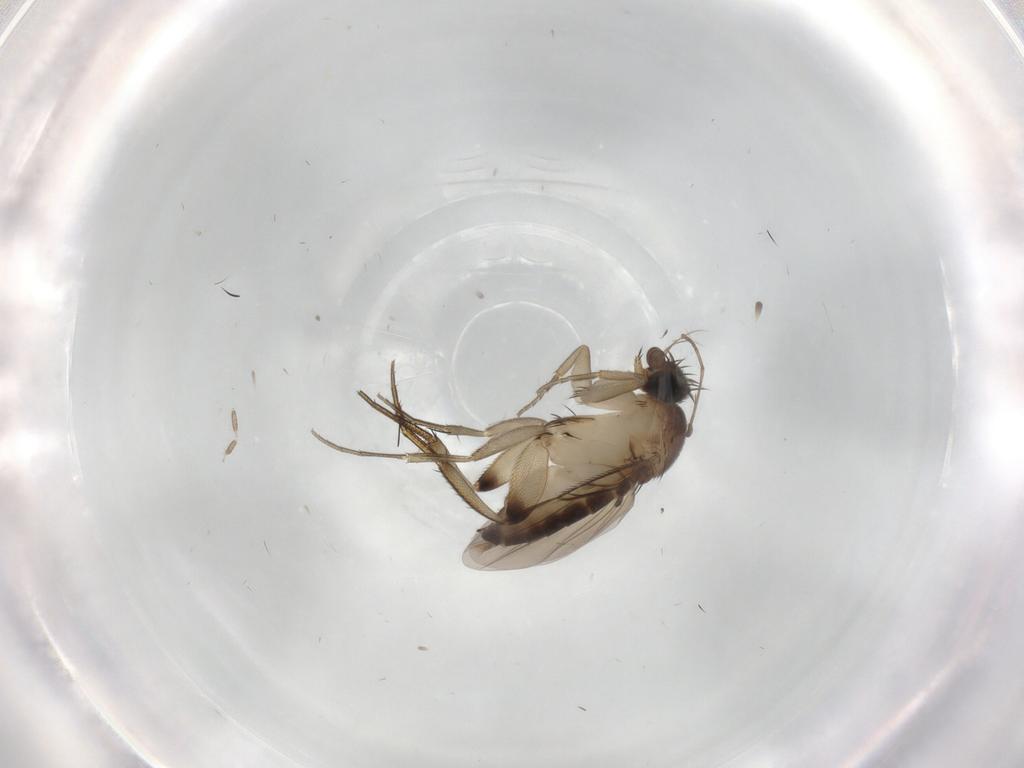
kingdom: Animalia
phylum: Arthropoda
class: Insecta
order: Diptera
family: Phoridae
